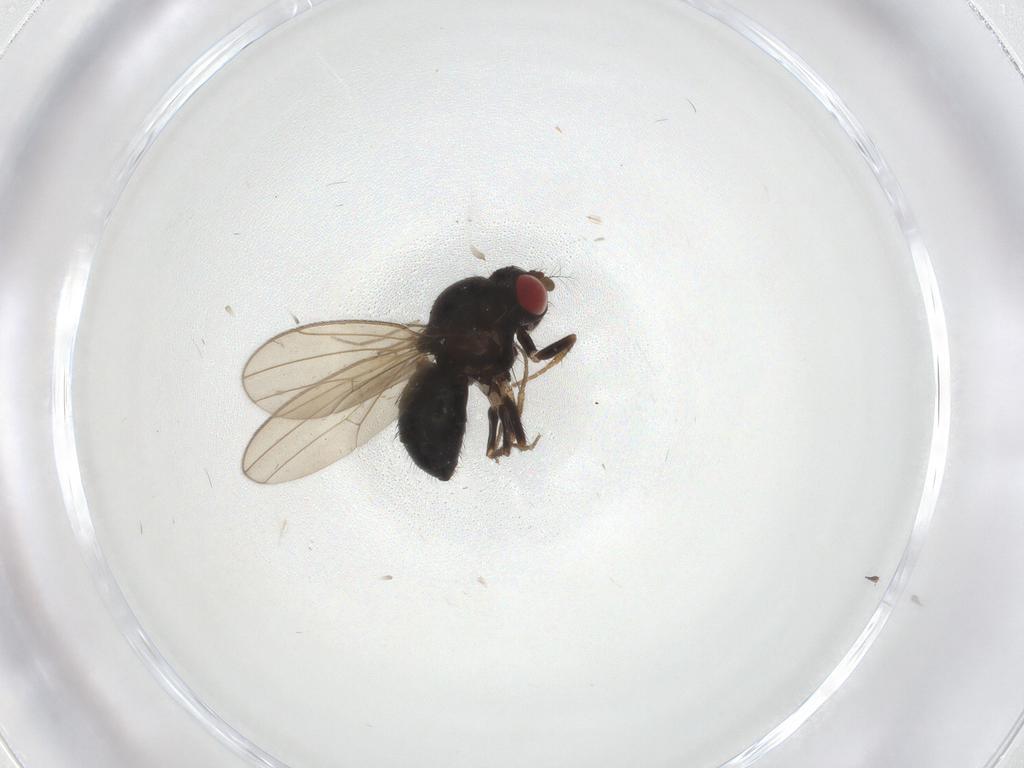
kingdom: Animalia
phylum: Arthropoda
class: Insecta
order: Diptera
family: Drosophilidae
